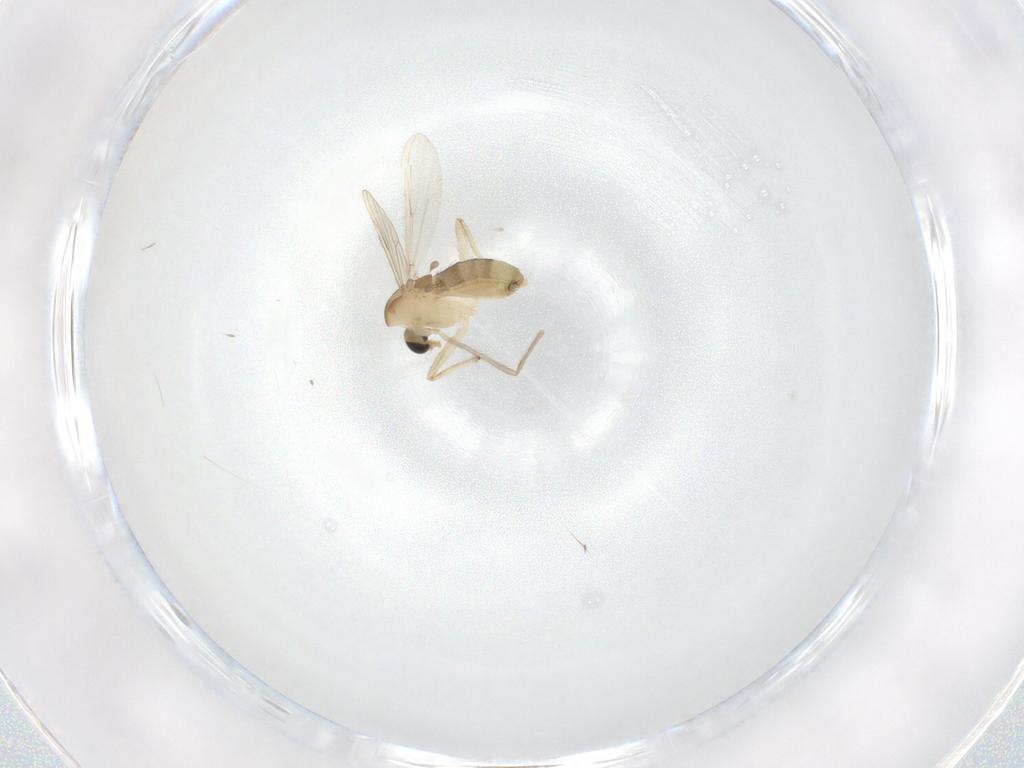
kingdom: Animalia
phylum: Arthropoda
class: Insecta
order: Diptera
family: Chironomidae
